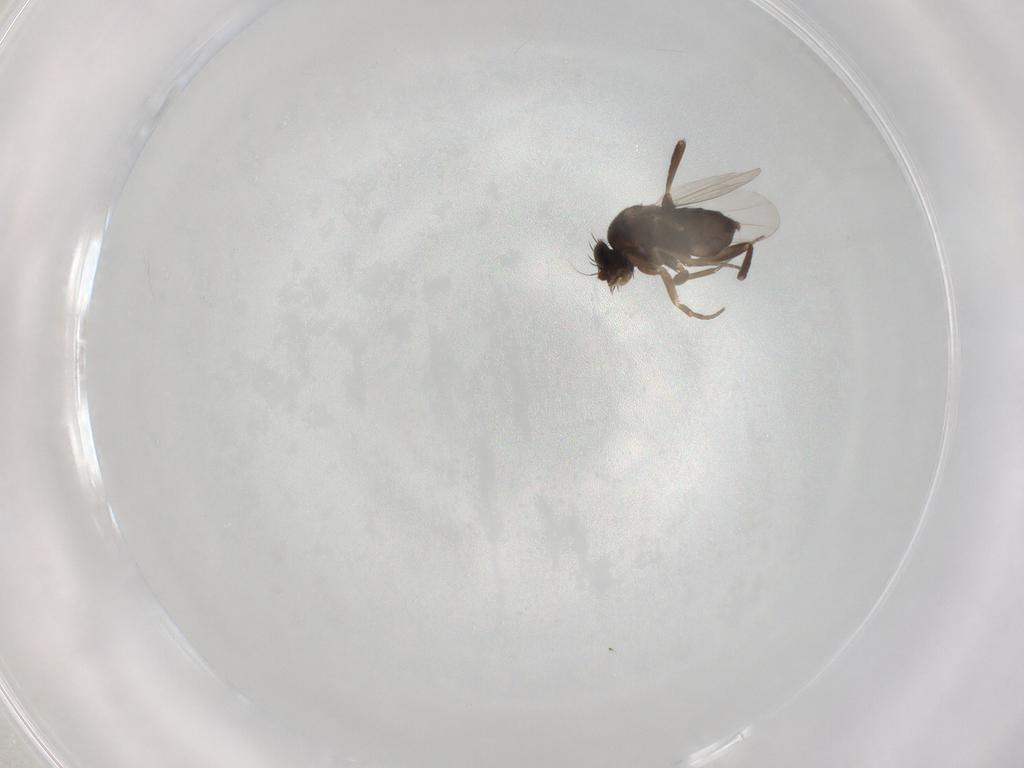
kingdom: Animalia
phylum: Arthropoda
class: Insecta
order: Diptera
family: Phoridae
